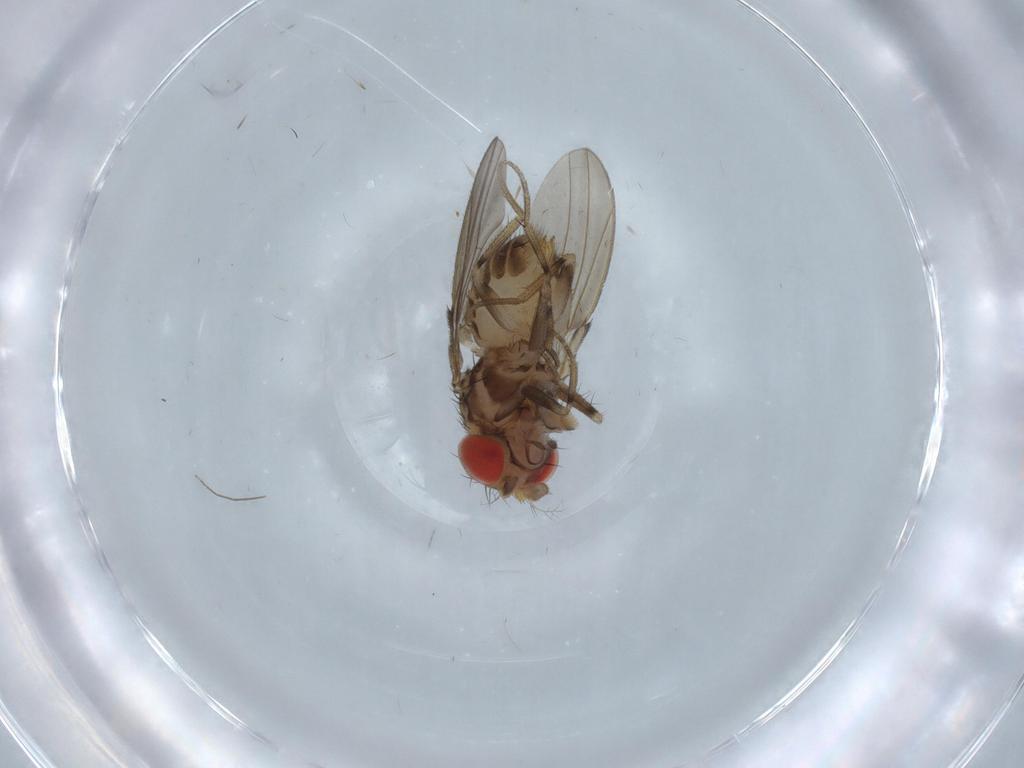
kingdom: Animalia
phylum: Arthropoda
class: Insecta
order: Diptera
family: Drosophilidae
